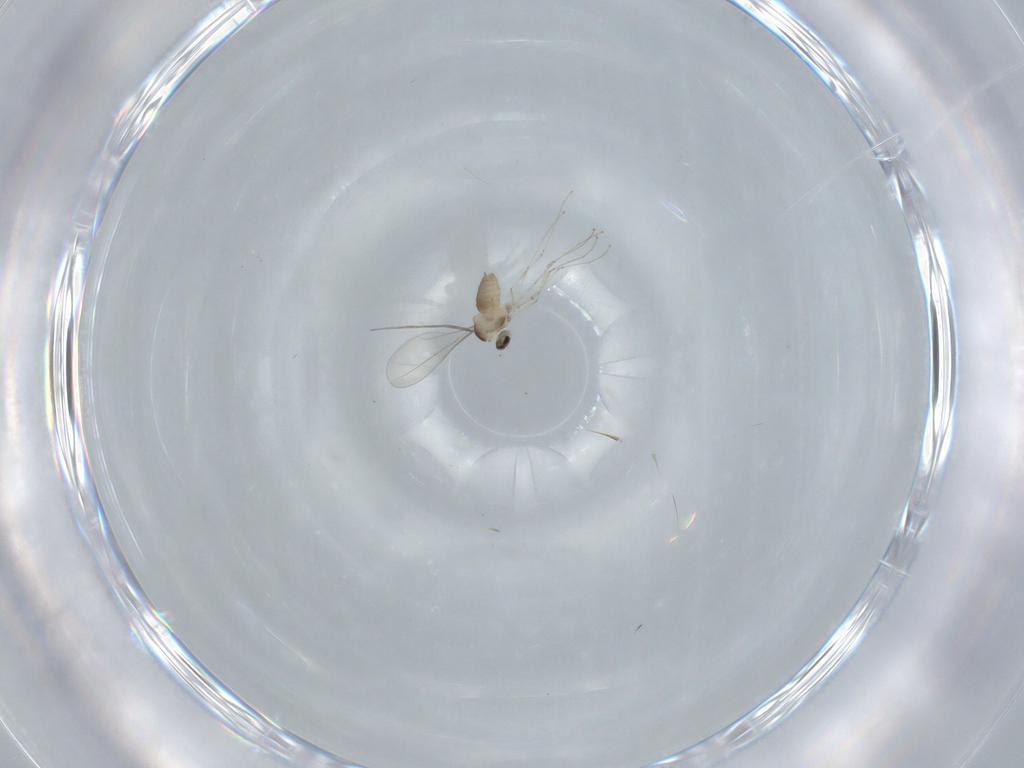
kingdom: Animalia
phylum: Arthropoda
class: Insecta
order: Diptera
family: Cecidomyiidae
